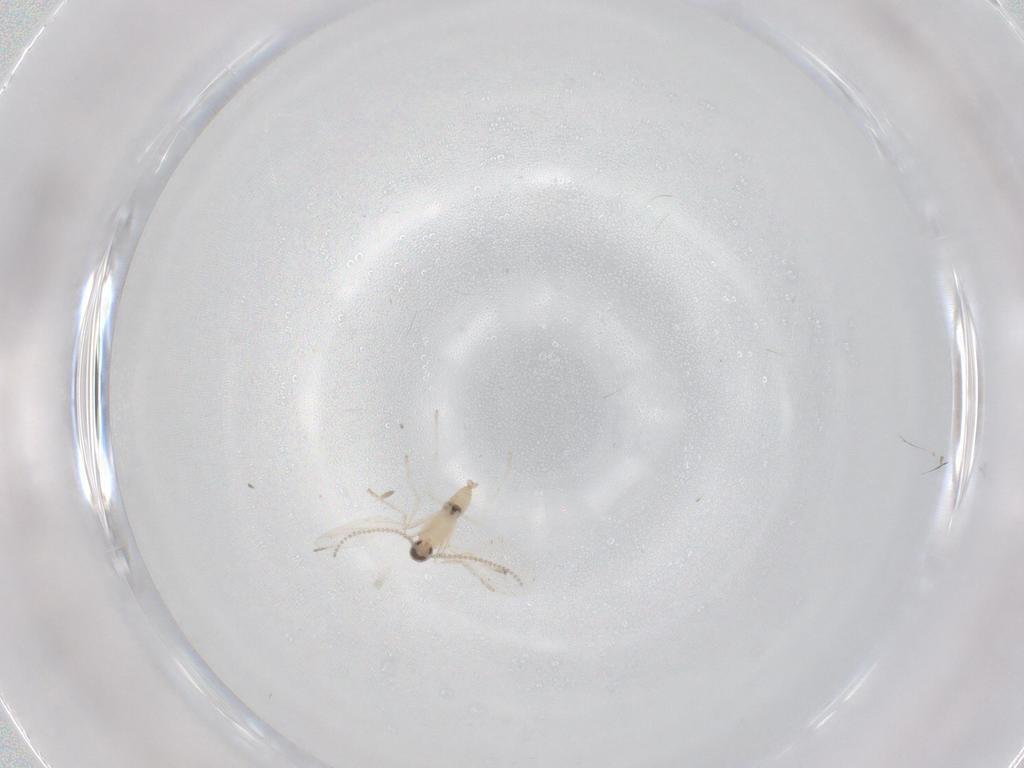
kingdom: Animalia
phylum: Arthropoda
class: Insecta
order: Diptera
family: Cecidomyiidae
